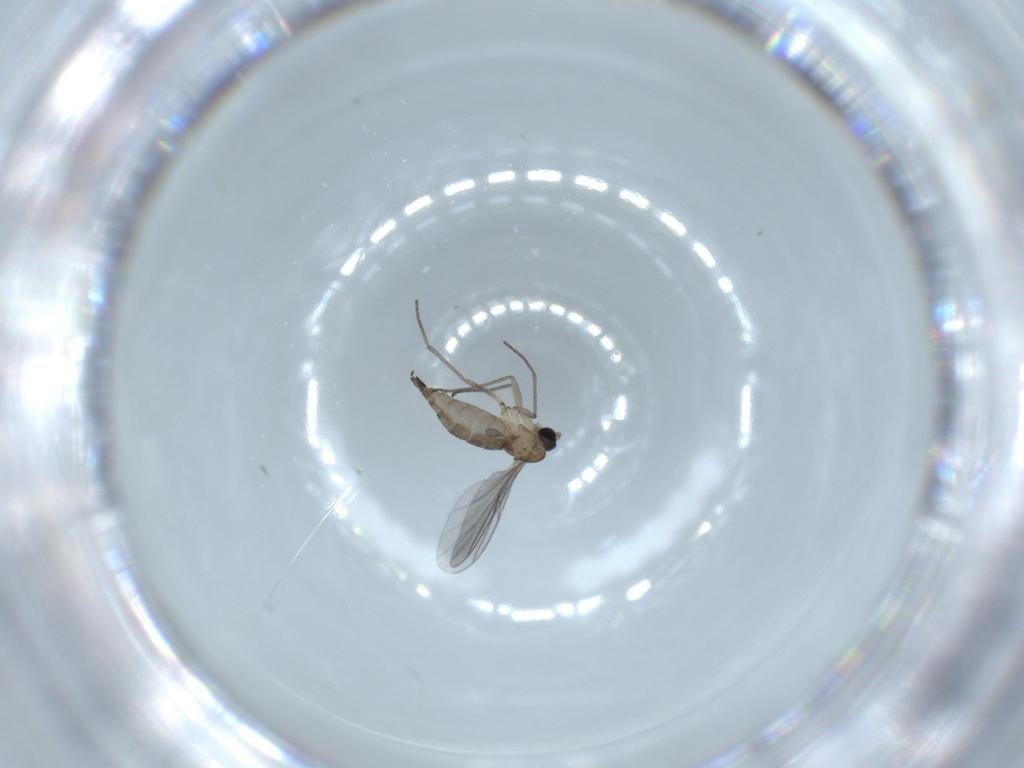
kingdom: Animalia
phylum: Arthropoda
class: Insecta
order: Diptera
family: Sciaridae
